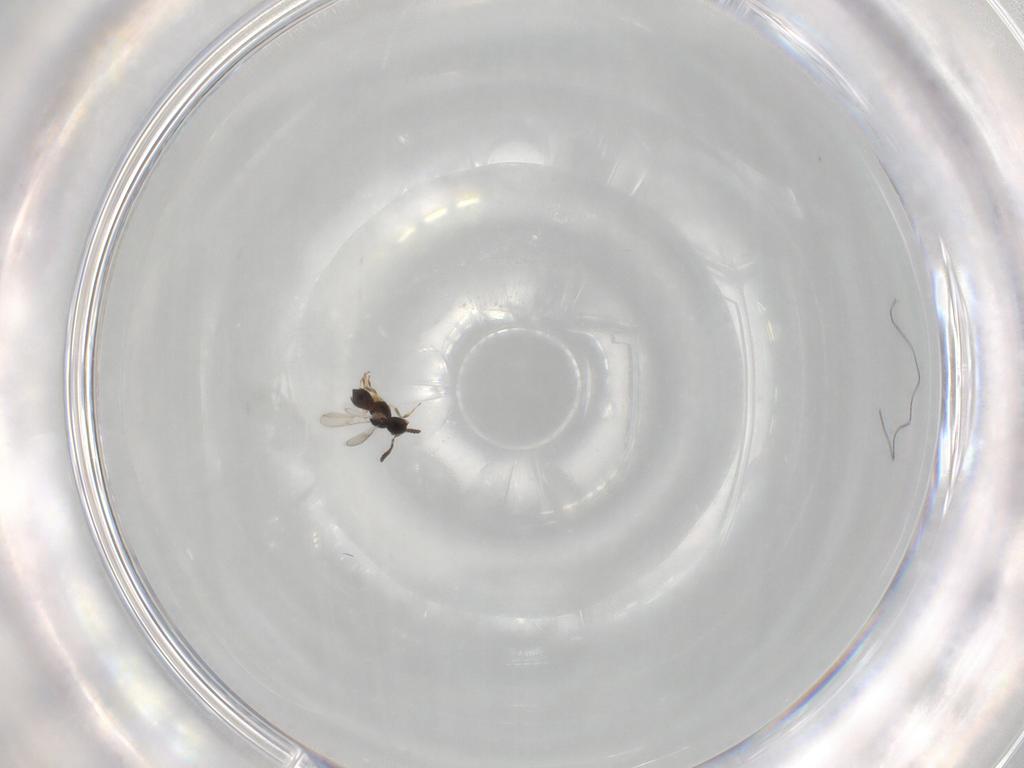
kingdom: Animalia
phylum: Arthropoda
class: Insecta
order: Hymenoptera
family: Scelionidae
